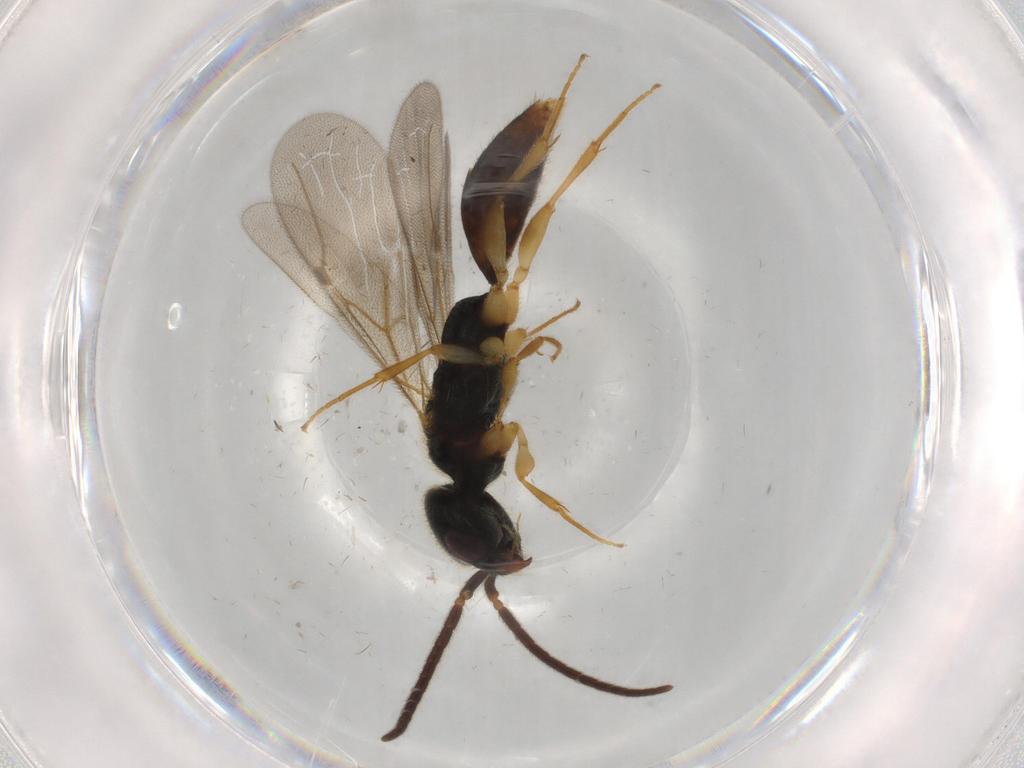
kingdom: Animalia
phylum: Arthropoda
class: Insecta
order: Hymenoptera
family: Bethylidae
